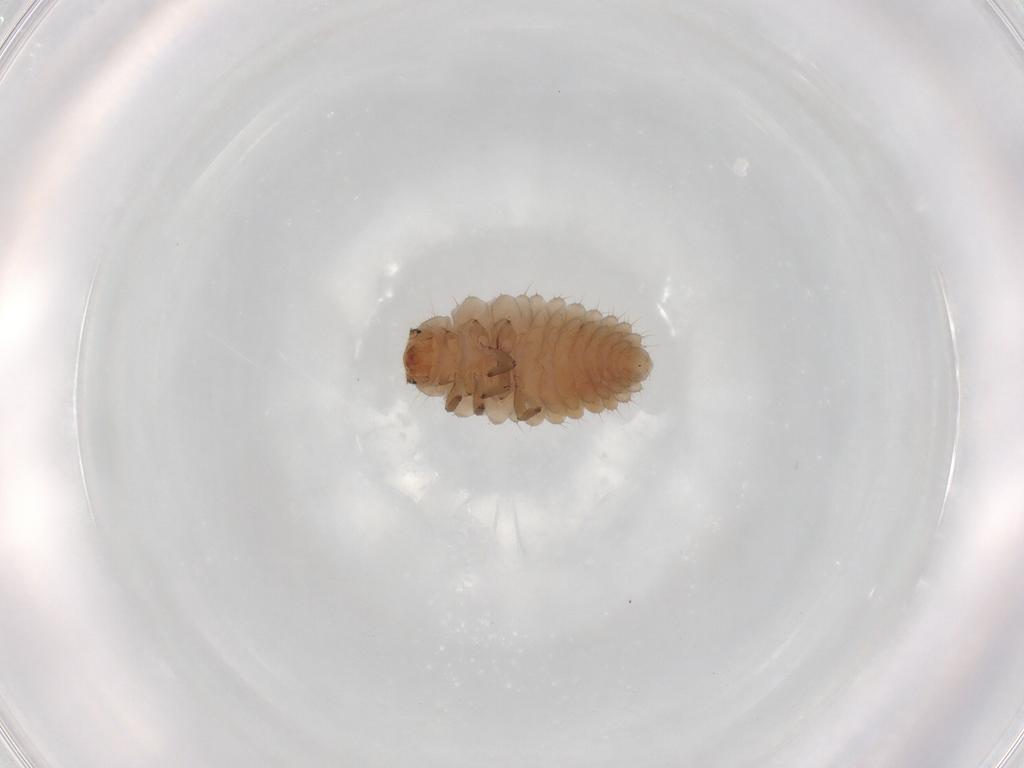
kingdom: Animalia
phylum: Arthropoda
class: Insecta
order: Coleoptera
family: Coccinellidae
